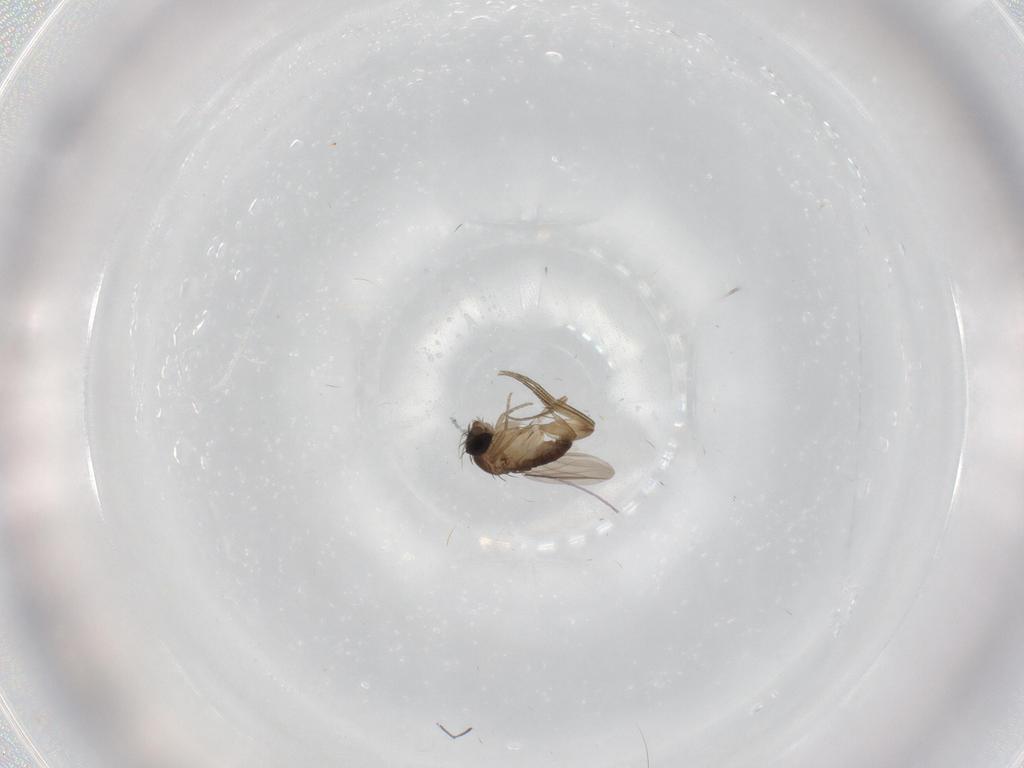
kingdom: Animalia
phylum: Arthropoda
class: Insecta
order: Diptera
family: Phoridae
